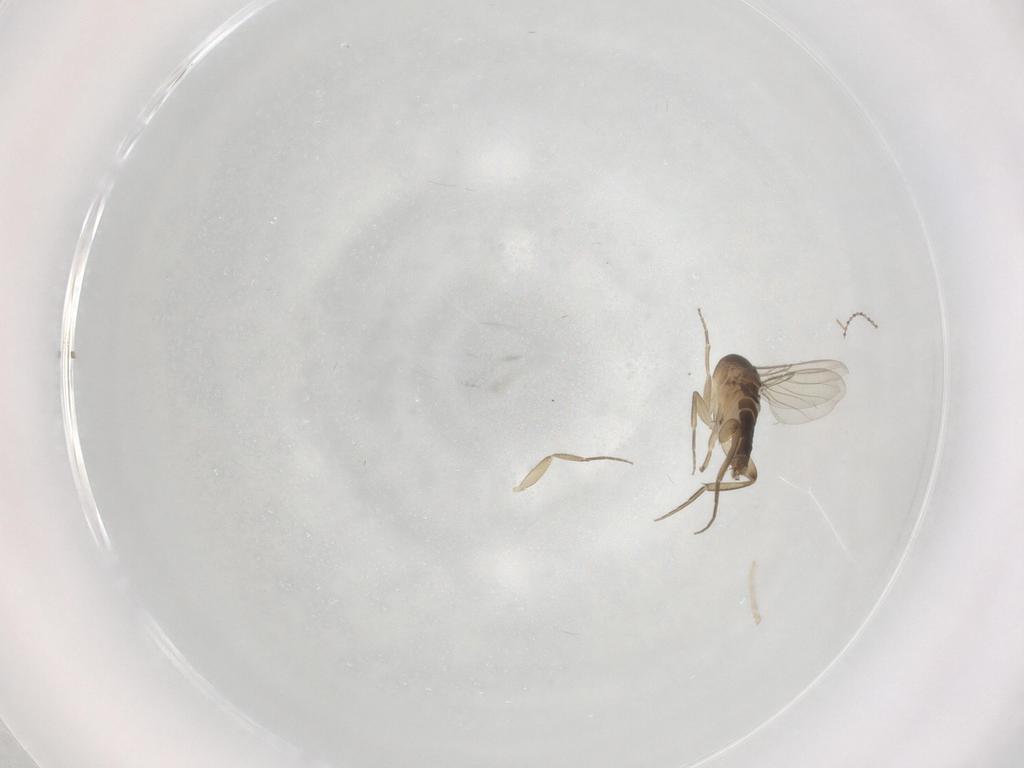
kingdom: Animalia
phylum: Arthropoda
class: Insecta
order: Diptera
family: Phoridae
